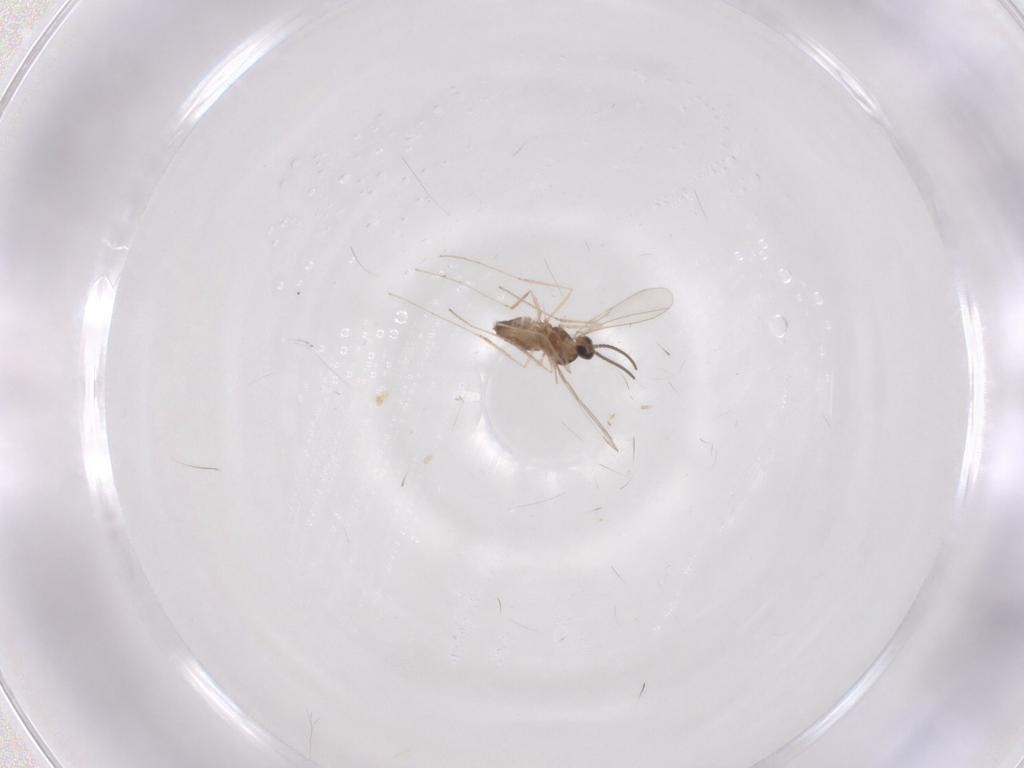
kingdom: Animalia
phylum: Arthropoda
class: Insecta
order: Diptera
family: Cecidomyiidae
